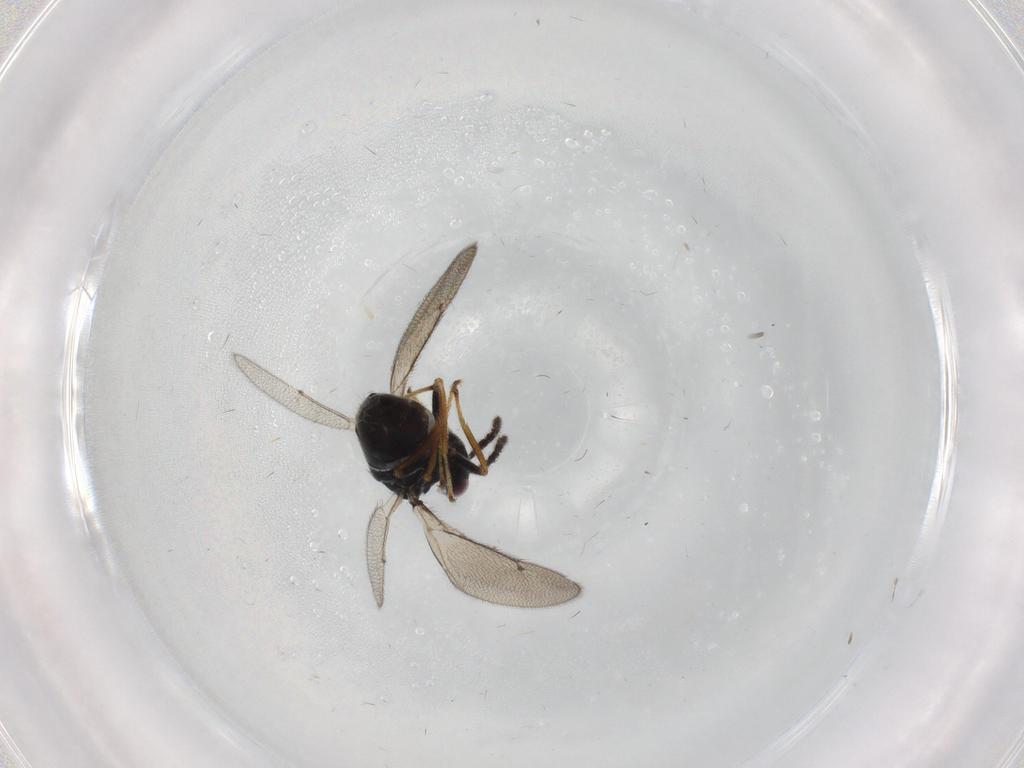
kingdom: Animalia
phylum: Arthropoda
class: Insecta
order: Hymenoptera
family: Eulophidae
